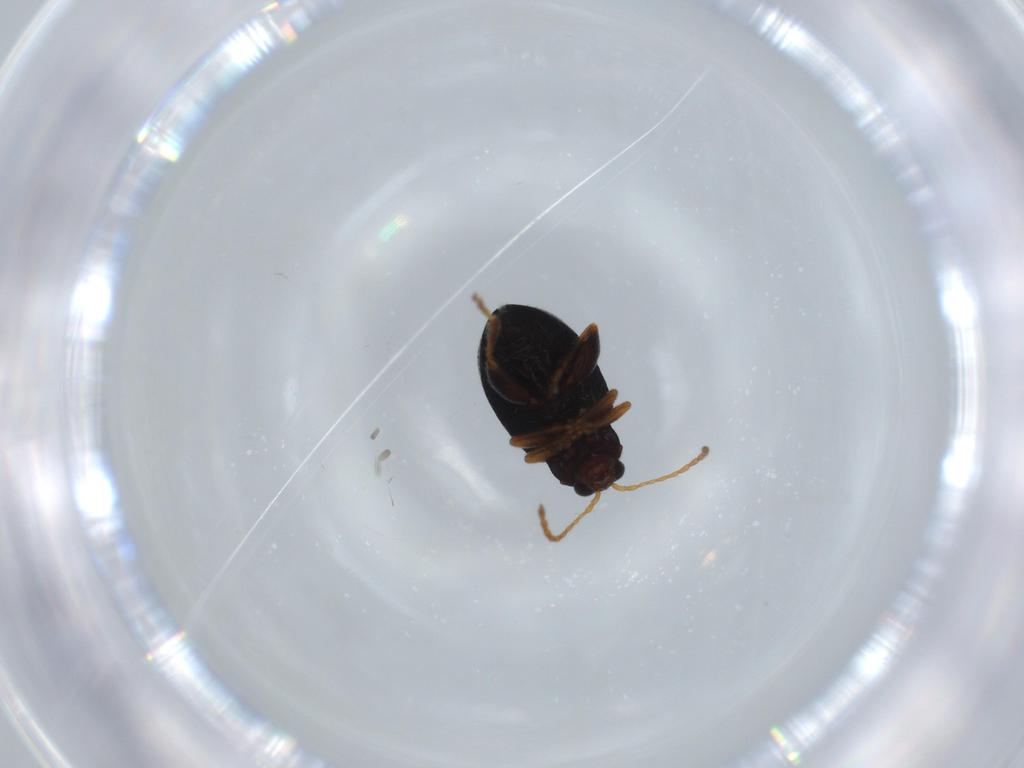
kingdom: Animalia
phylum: Arthropoda
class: Insecta
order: Coleoptera
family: Chrysomelidae
